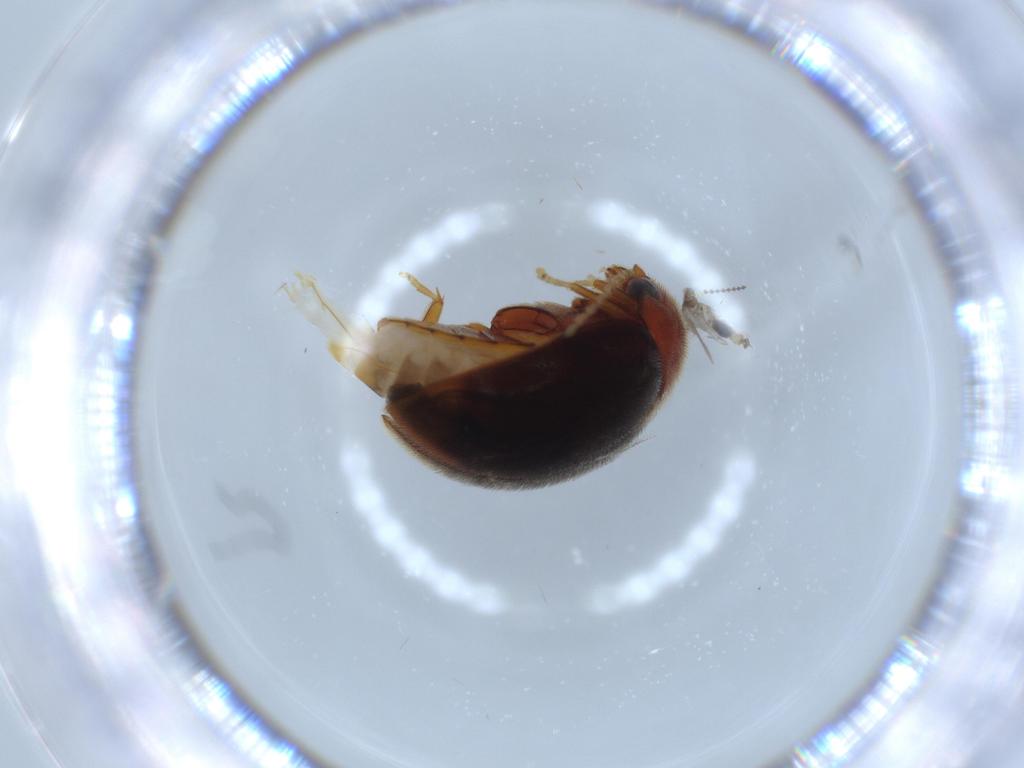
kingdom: Animalia
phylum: Arthropoda
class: Insecta
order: Coleoptera
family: Scirtidae
